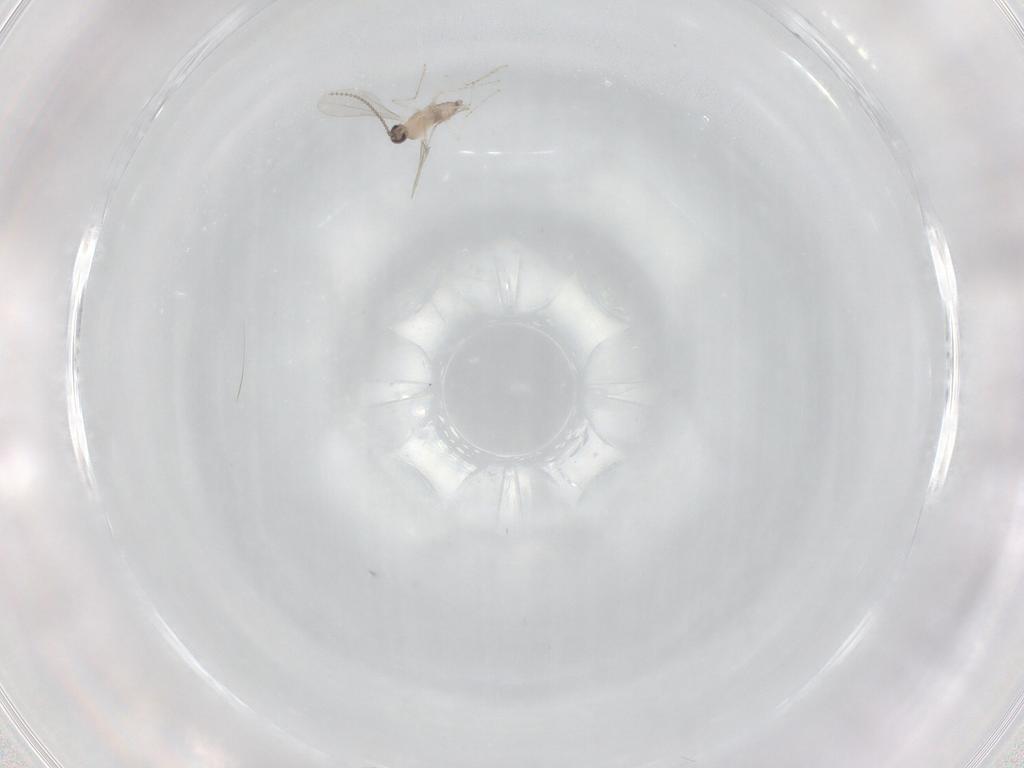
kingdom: Animalia
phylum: Arthropoda
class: Insecta
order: Diptera
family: Cecidomyiidae
